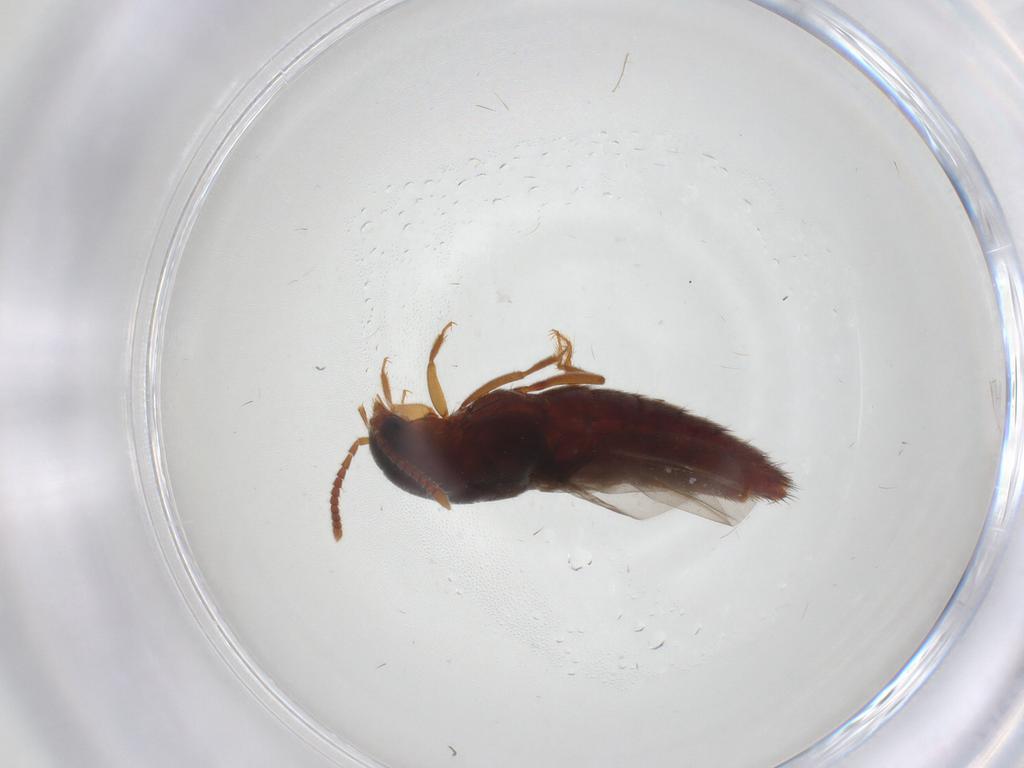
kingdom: Animalia
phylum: Arthropoda
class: Insecta
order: Coleoptera
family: Staphylinidae
